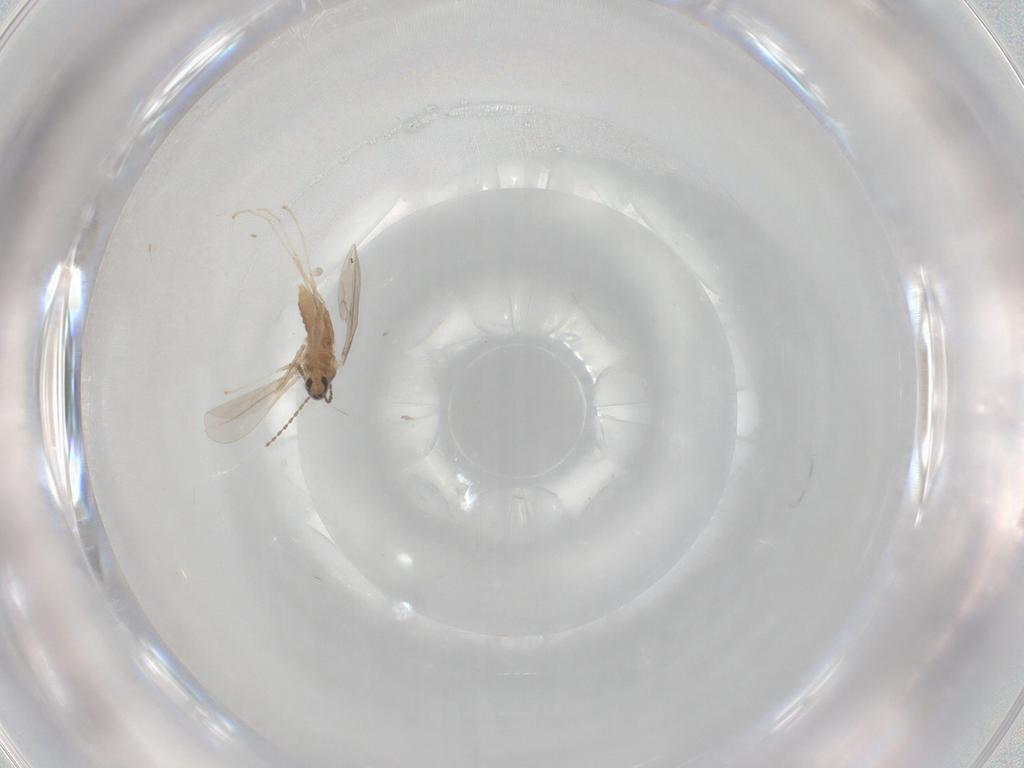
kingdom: Animalia
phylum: Arthropoda
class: Insecta
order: Diptera
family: Cecidomyiidae
